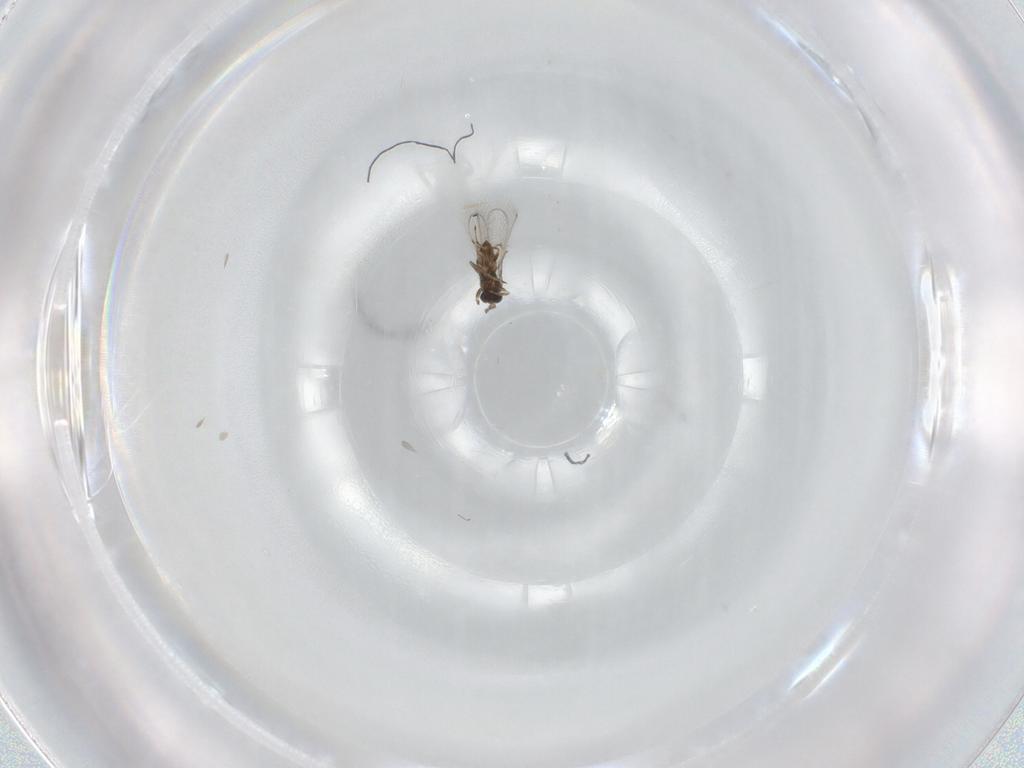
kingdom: Animalia
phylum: Arthropoda
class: Insecta
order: Hymenoptera
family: Trichogrammatidae
